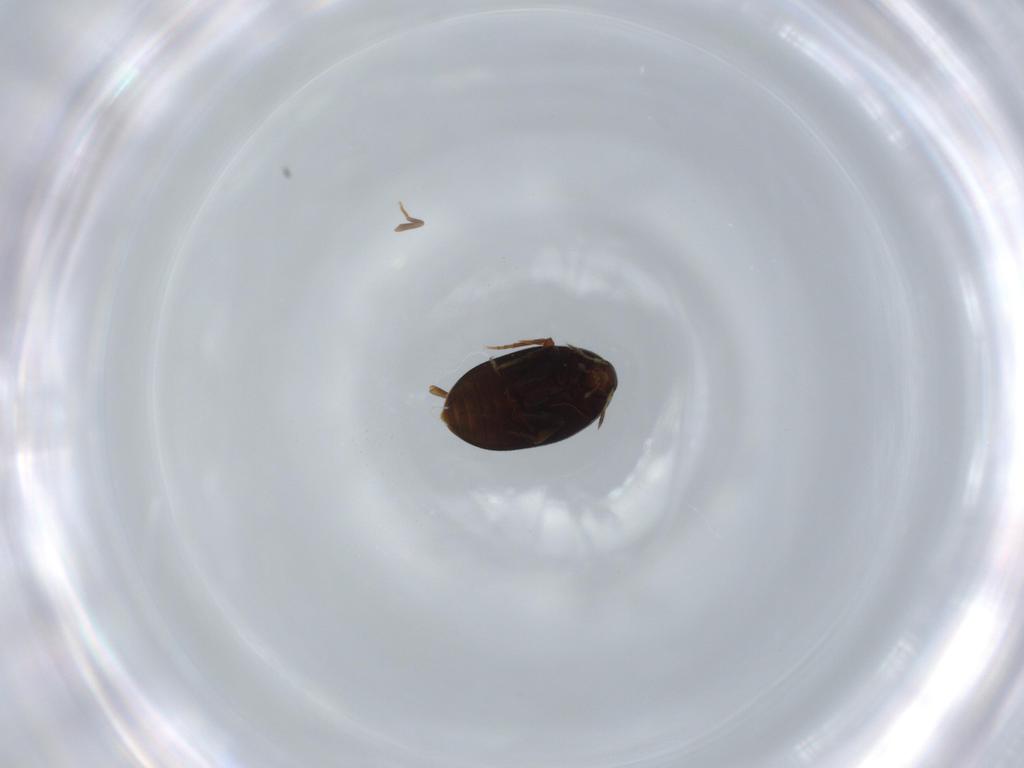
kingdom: Animalia
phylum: Arthropoda
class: Insecta
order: Coleoptera
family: Melandryidae
